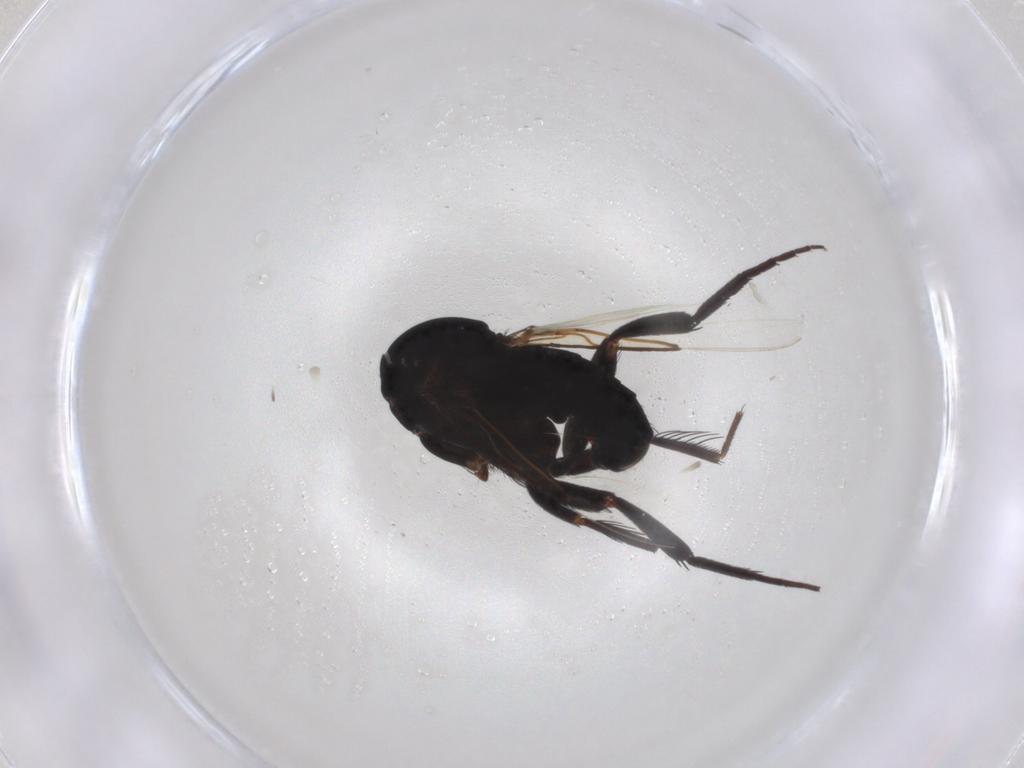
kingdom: Animalia
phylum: Arthropoda
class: Insecta
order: Diptera
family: Phoridae
